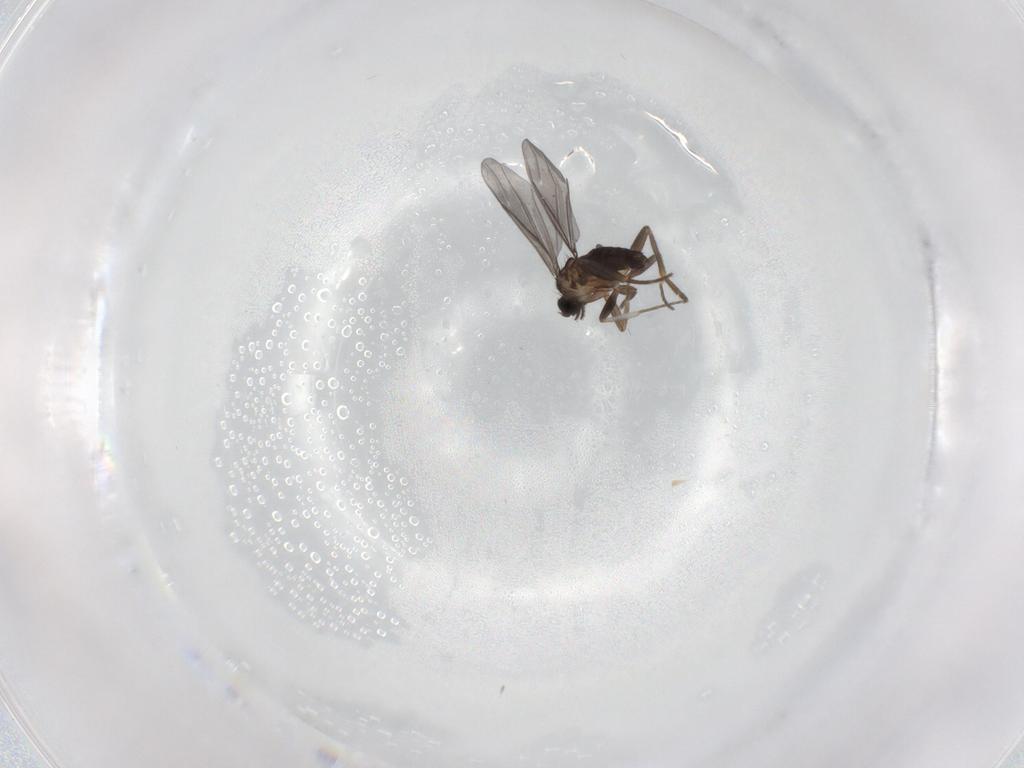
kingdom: Animalia
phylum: Arthropoda
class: Insecta
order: Diptera
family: Phoridae
